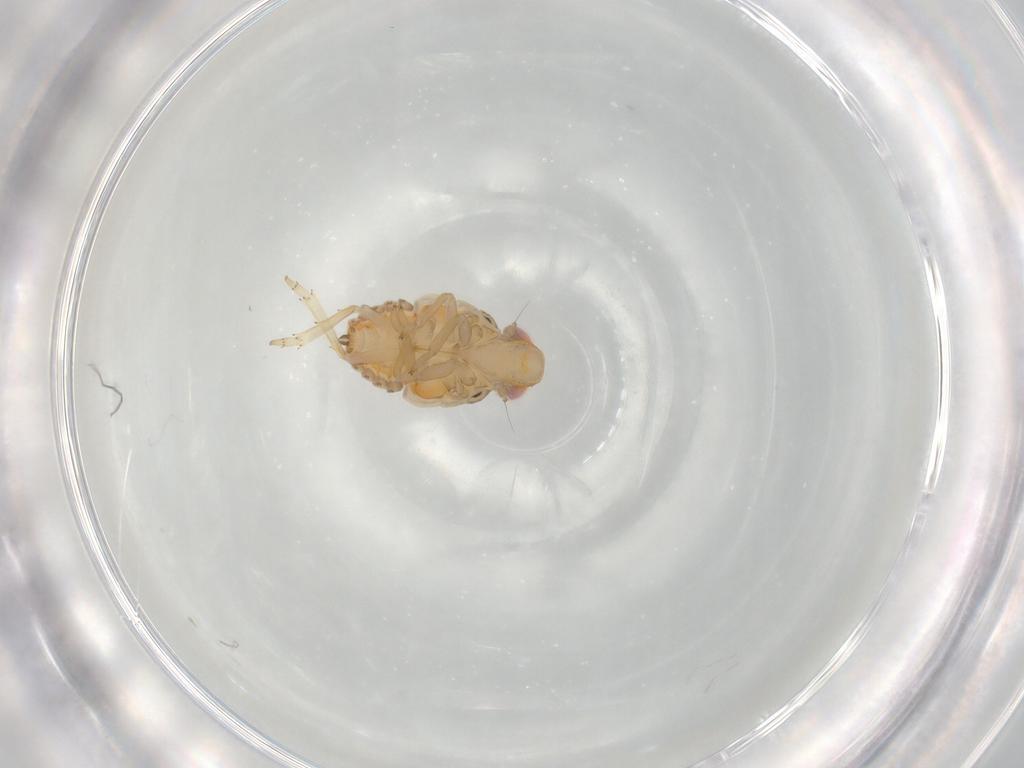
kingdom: Animalia
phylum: Arthropoda
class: Insecta
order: Hemiptera
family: Issidae
